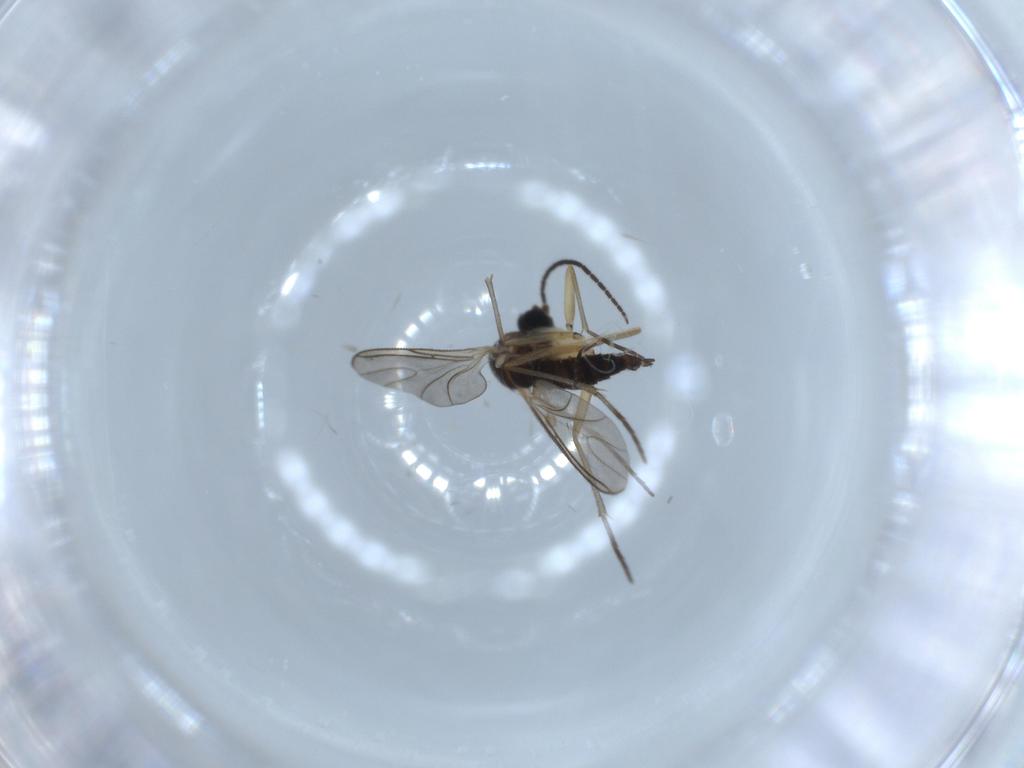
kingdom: Animalia
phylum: Arthropoda
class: Insecta
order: Diptera
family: Sciaridae
